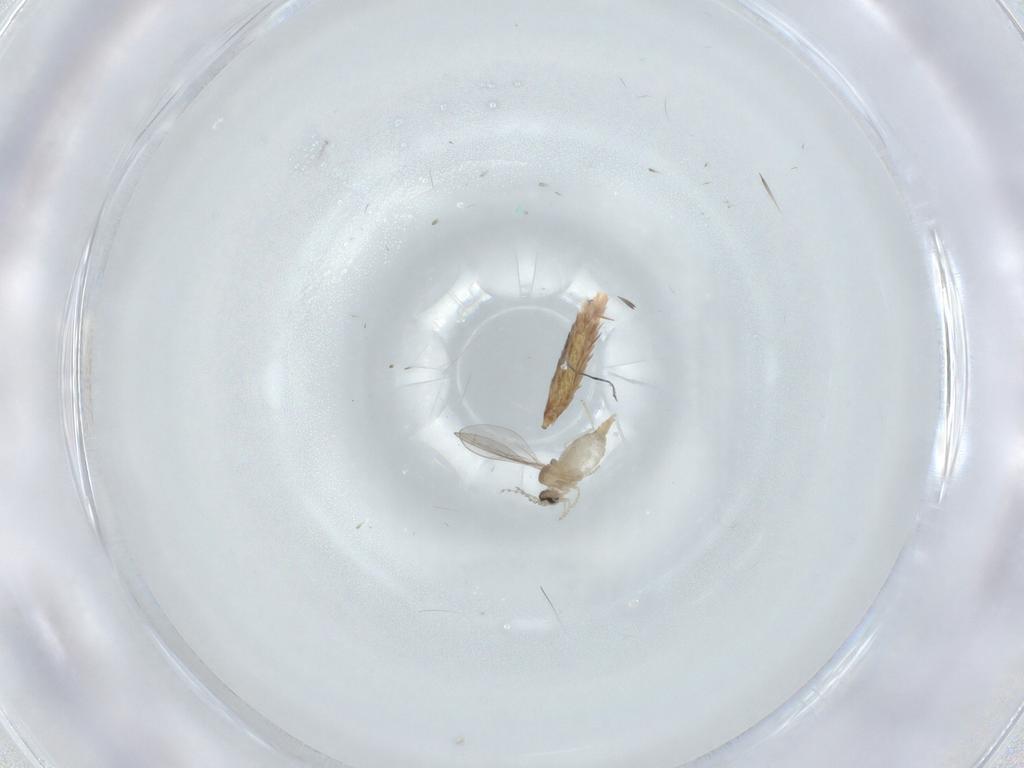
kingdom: Animalia
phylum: Arthropoda
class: Insecta
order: Diptera
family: Cecidomyiidae
